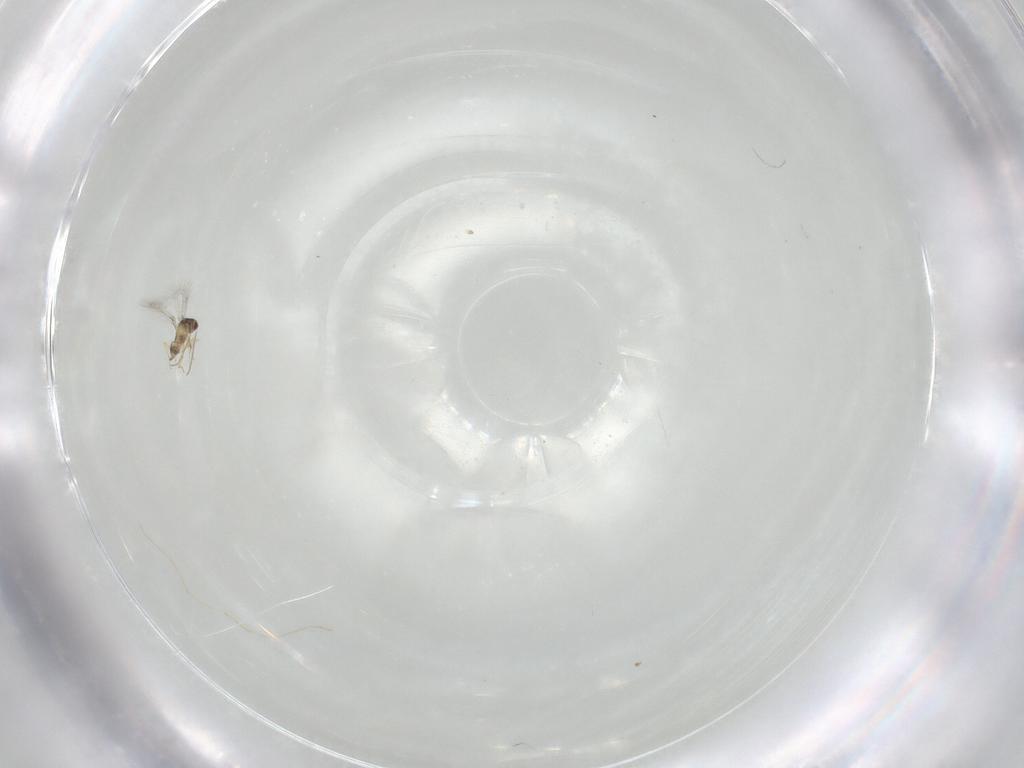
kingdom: Animalia
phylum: Arthropoda
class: Insecta
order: Hymenoptera
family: Mymaridae
